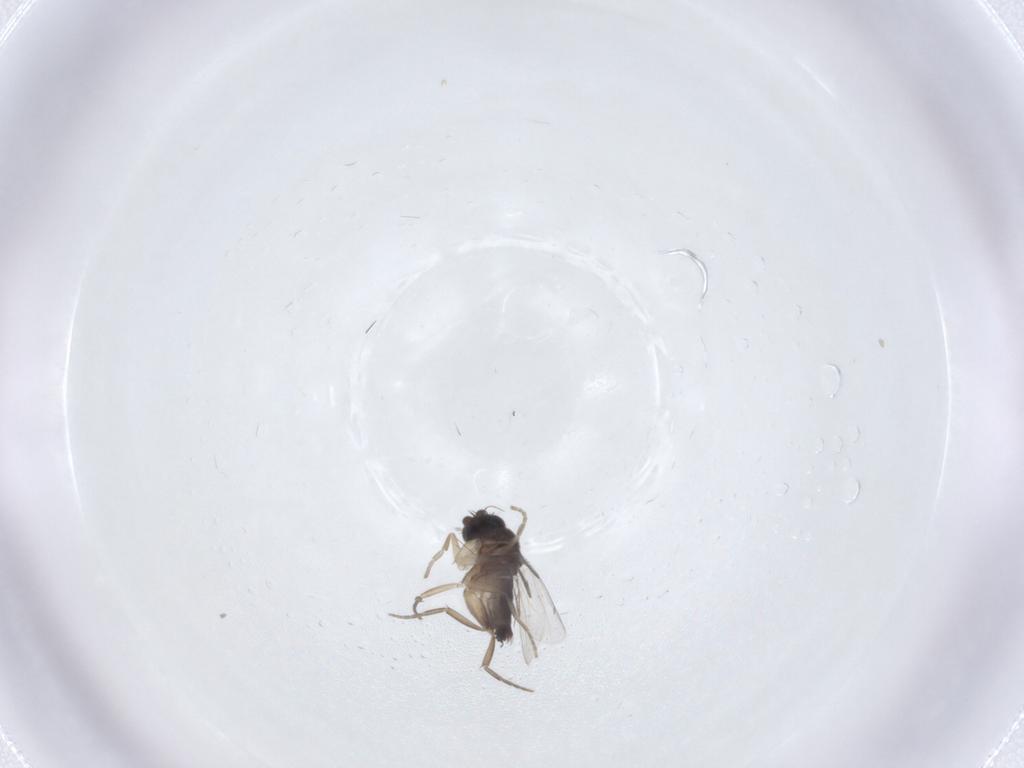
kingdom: Animalia
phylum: Arthropoda
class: Insecta
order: Diptera
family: Phoridae
